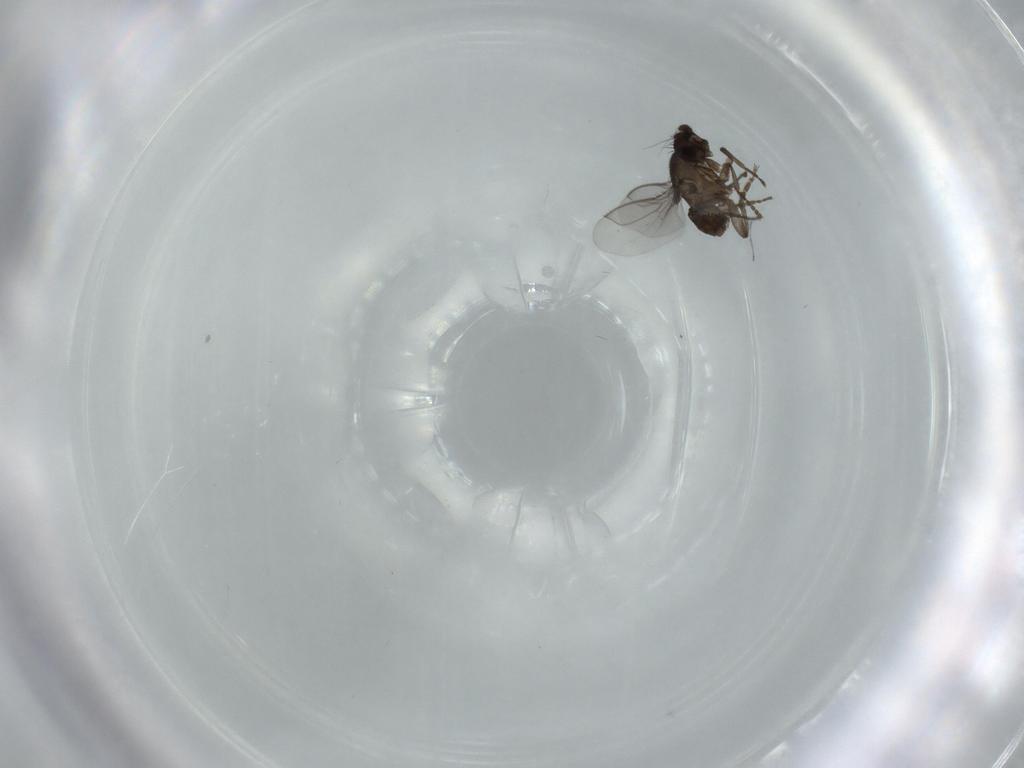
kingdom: Animalia
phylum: Arthropoda
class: Insecta
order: Diptera
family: Sphaeroceridae
